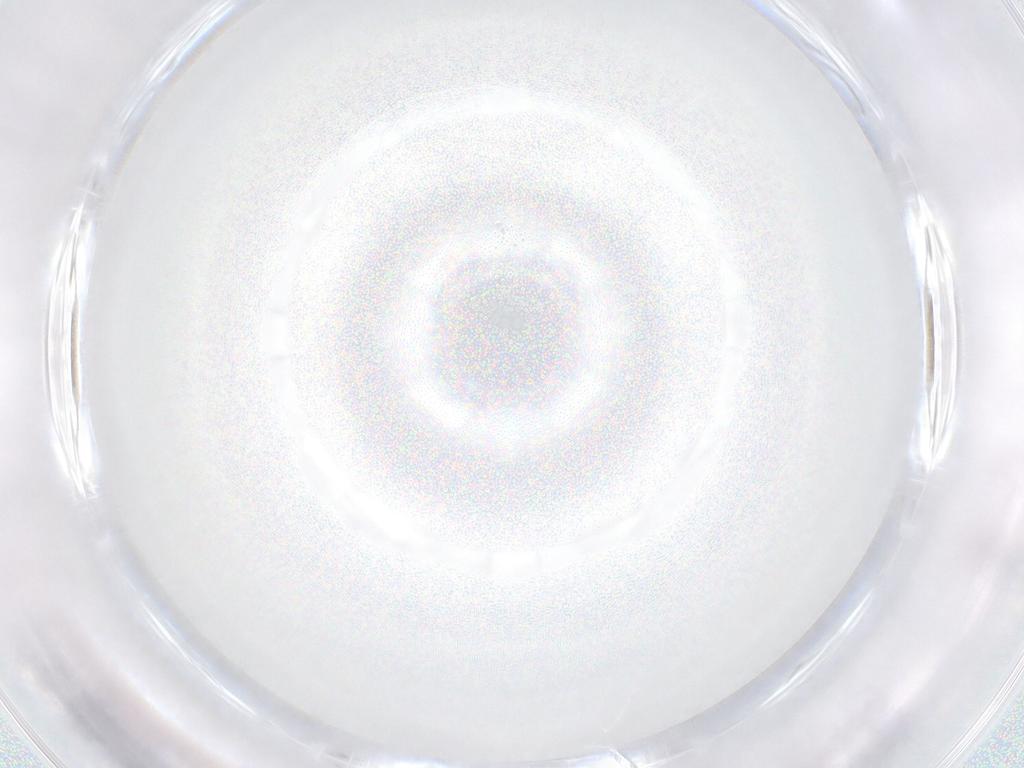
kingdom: Animalia
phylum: Arthropoda
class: Insecta
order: Diptera
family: Chironomidae
